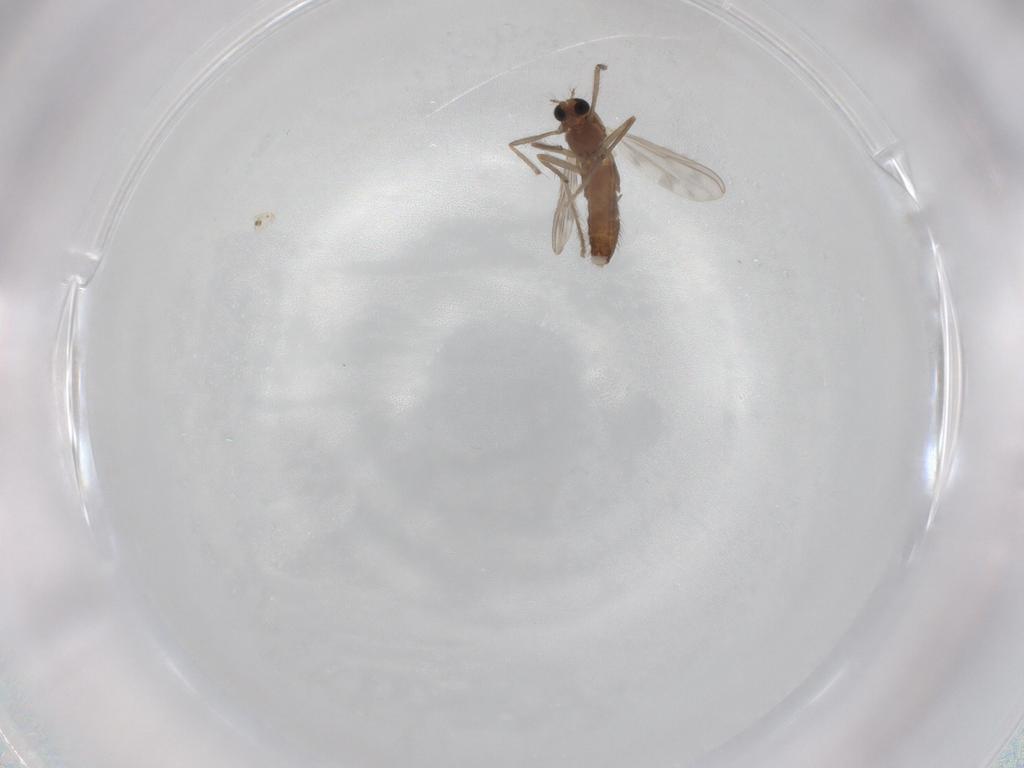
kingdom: Animalia
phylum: Arthropoda
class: Insecta
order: Diptera
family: Chironomidae
